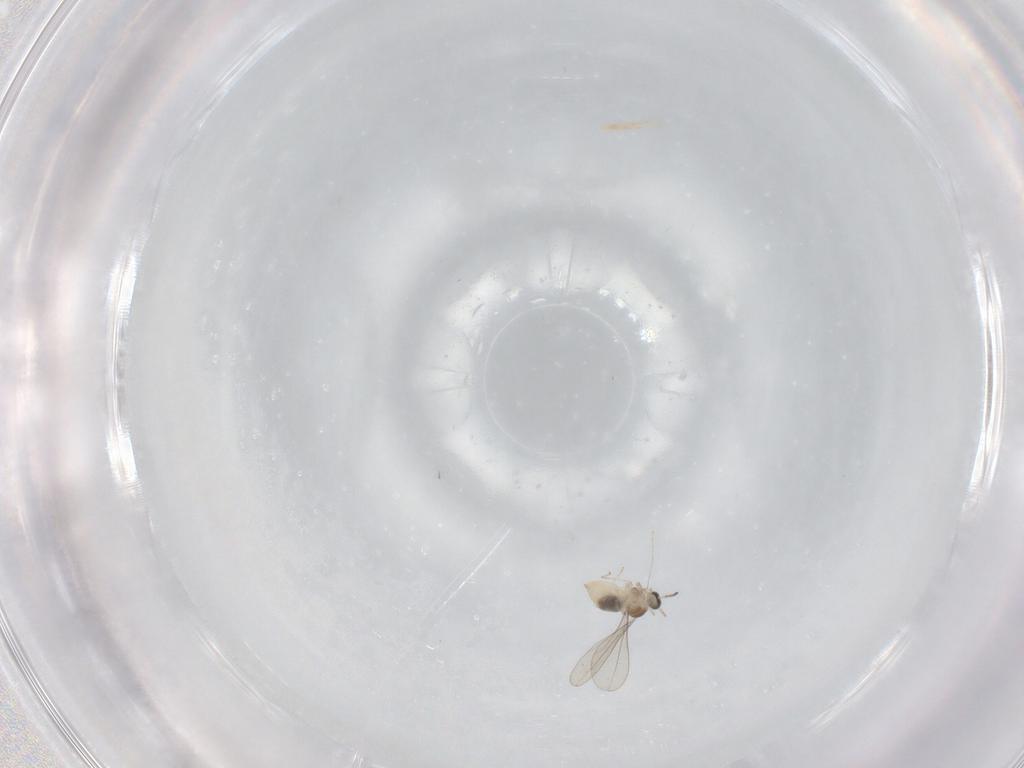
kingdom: Animalia
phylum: Arthropoda
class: Insecta
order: Diptera
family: Cecidomyiidae
